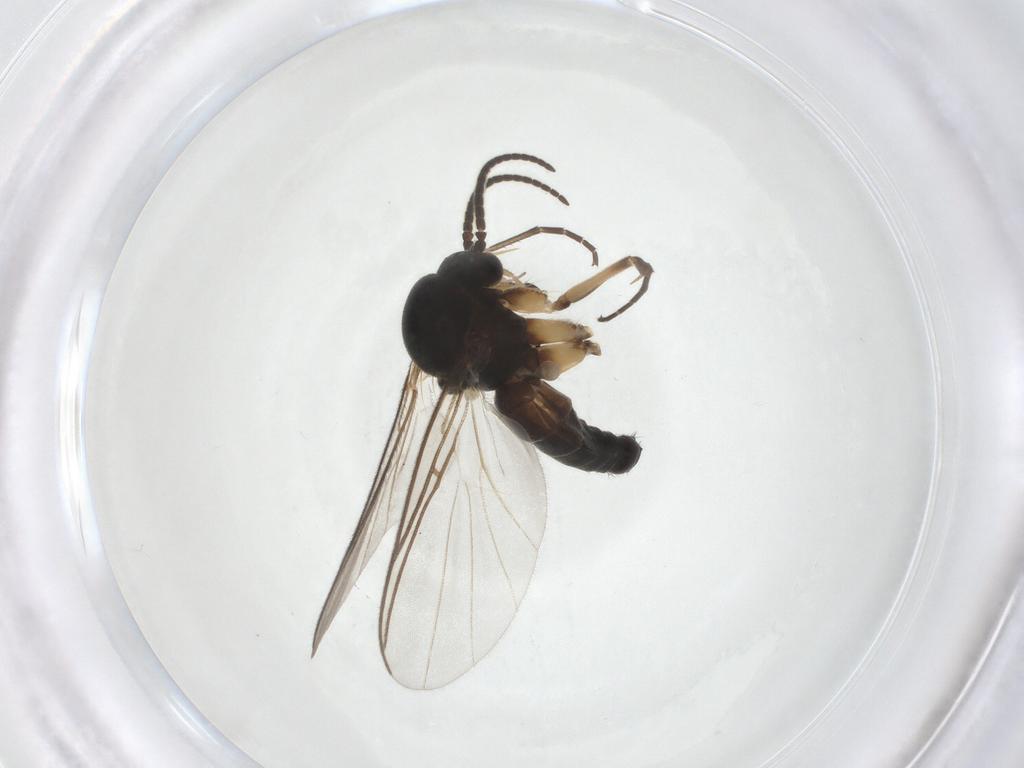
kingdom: Animalia
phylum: Arthropoda
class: Insecta
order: Diptera
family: Mycetophilidae
